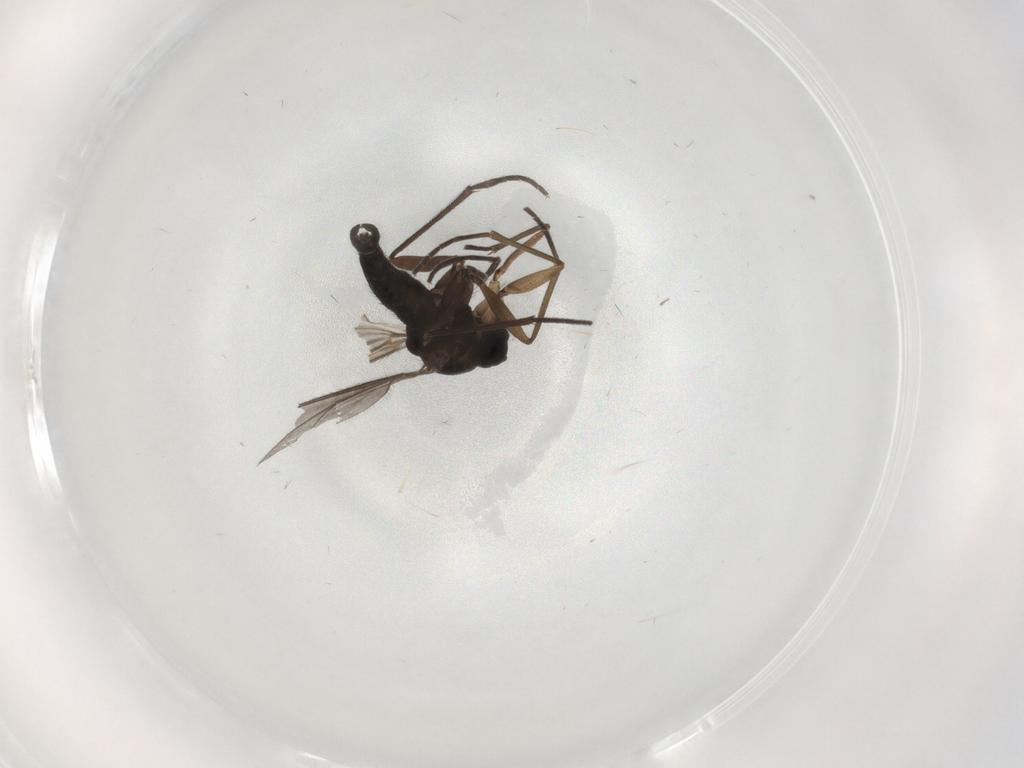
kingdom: Animalia
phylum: Arthropoda
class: Insecta
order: Diptera
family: Sciaridae
